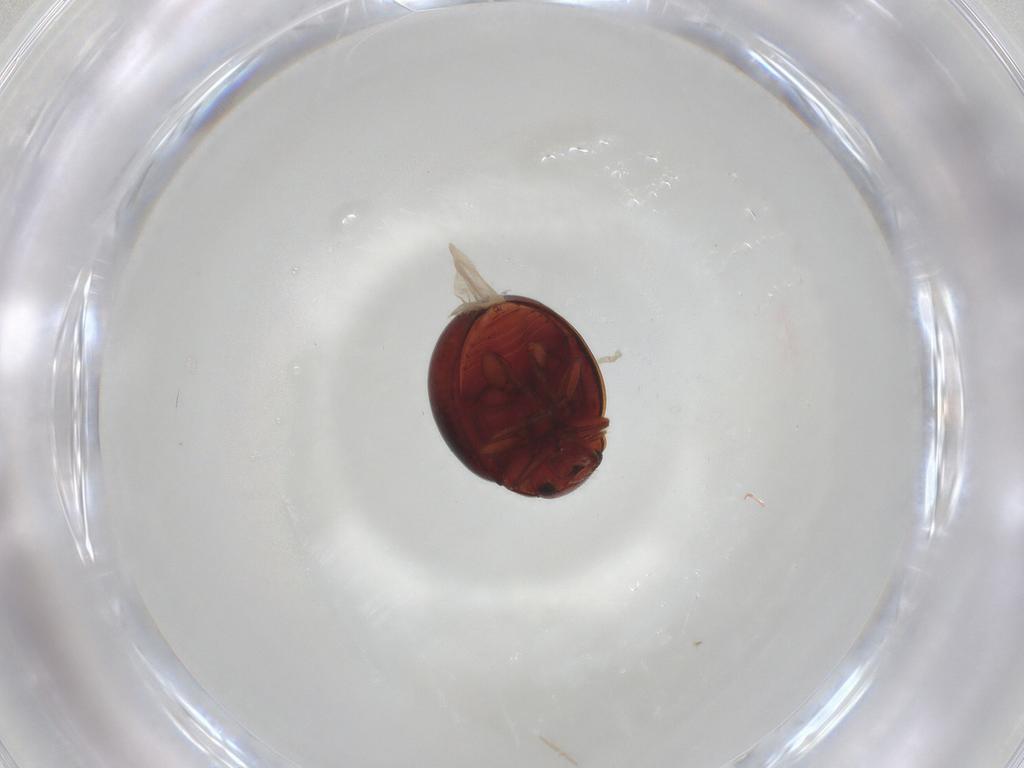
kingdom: Animalia
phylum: Arthropoda
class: Insecta
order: Coleoptera
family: Coccinellidae
